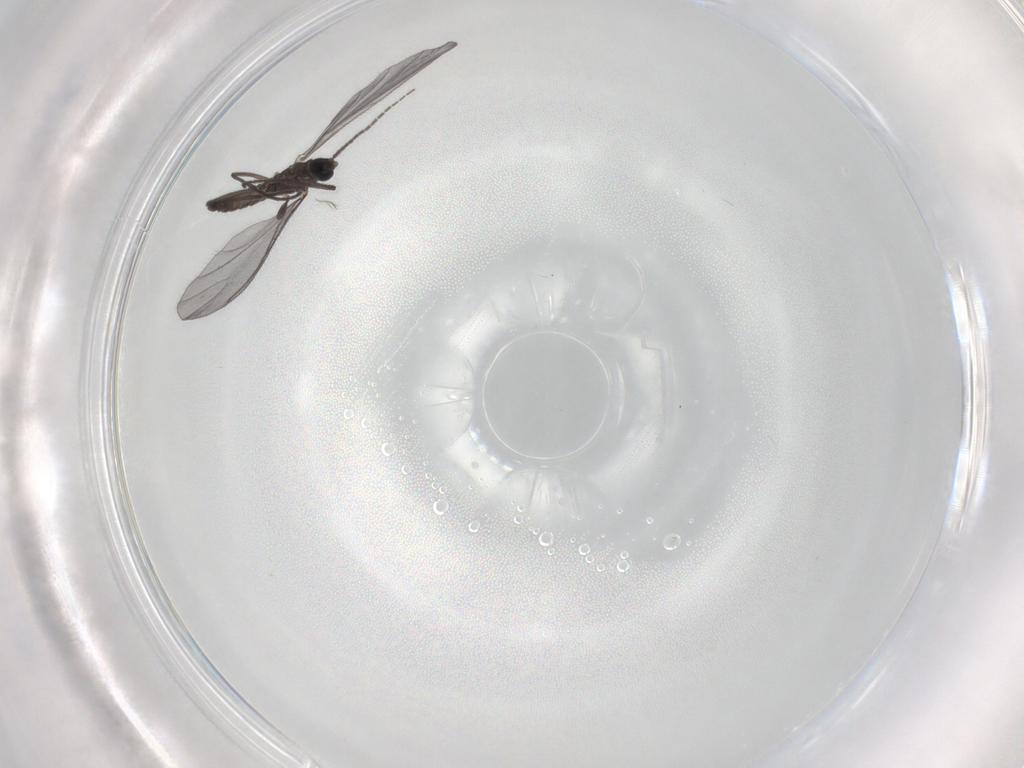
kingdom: Animalia
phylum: Arthropoda
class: Insecta
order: Diptera
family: Sciaridae
